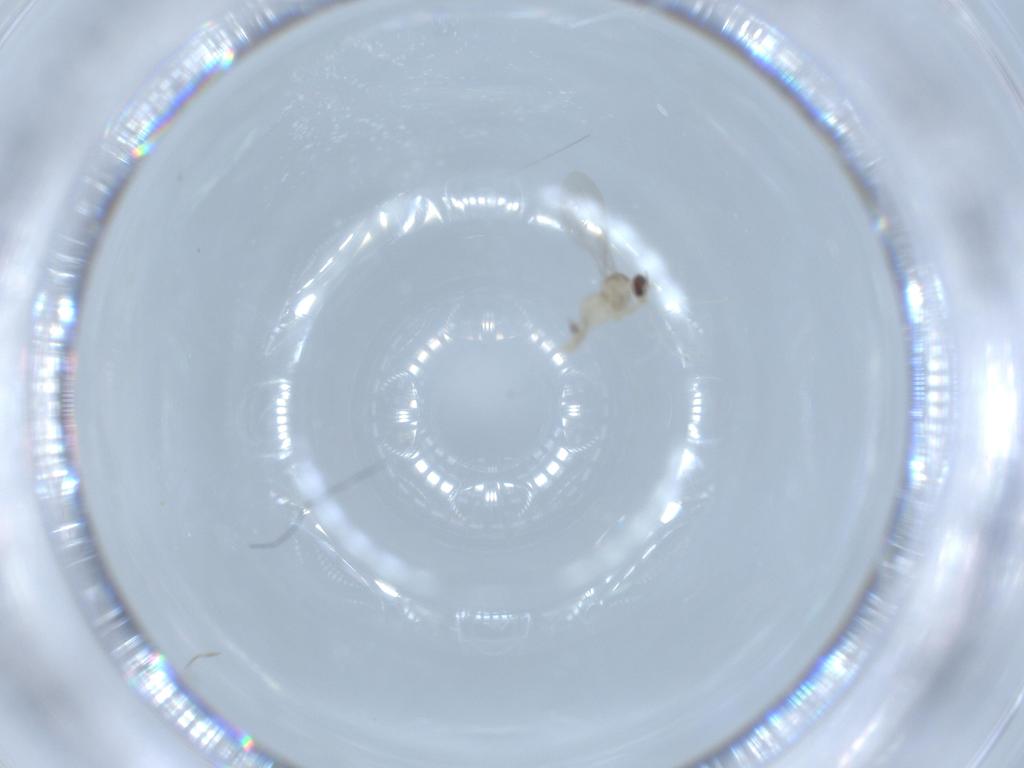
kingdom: Animalia
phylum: Arthropoda
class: Insecta
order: Diptera
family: Cecidomyiidae
